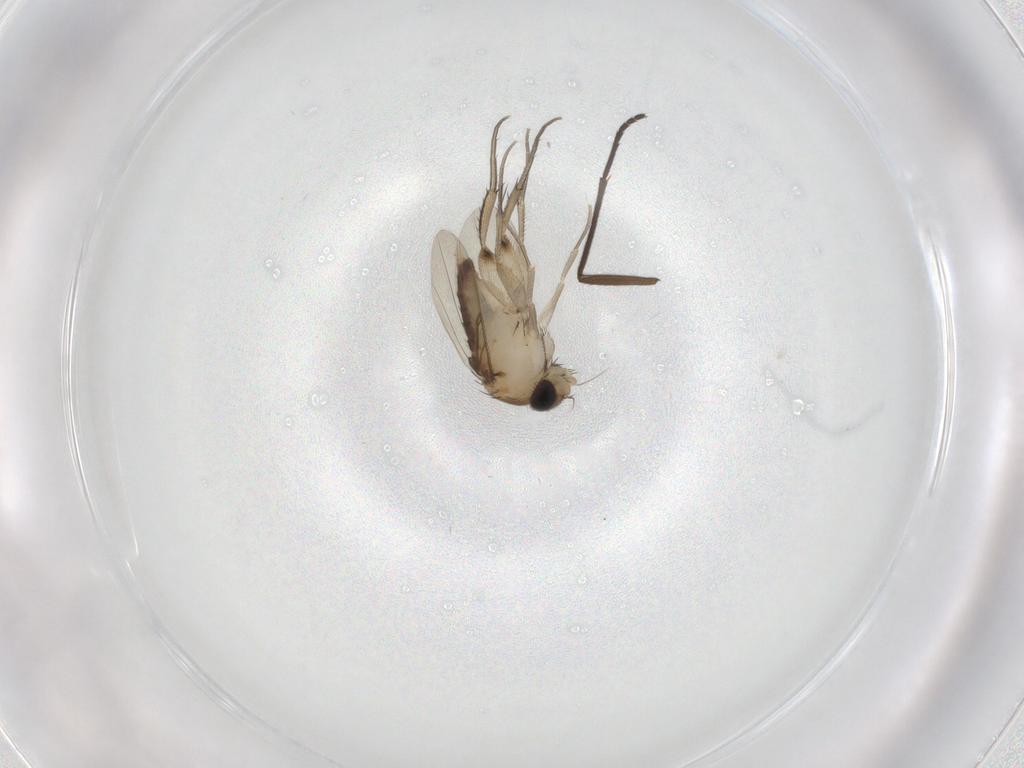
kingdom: Animalia
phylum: Arthropoda
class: Insecta
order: Diptera
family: Phoridae
